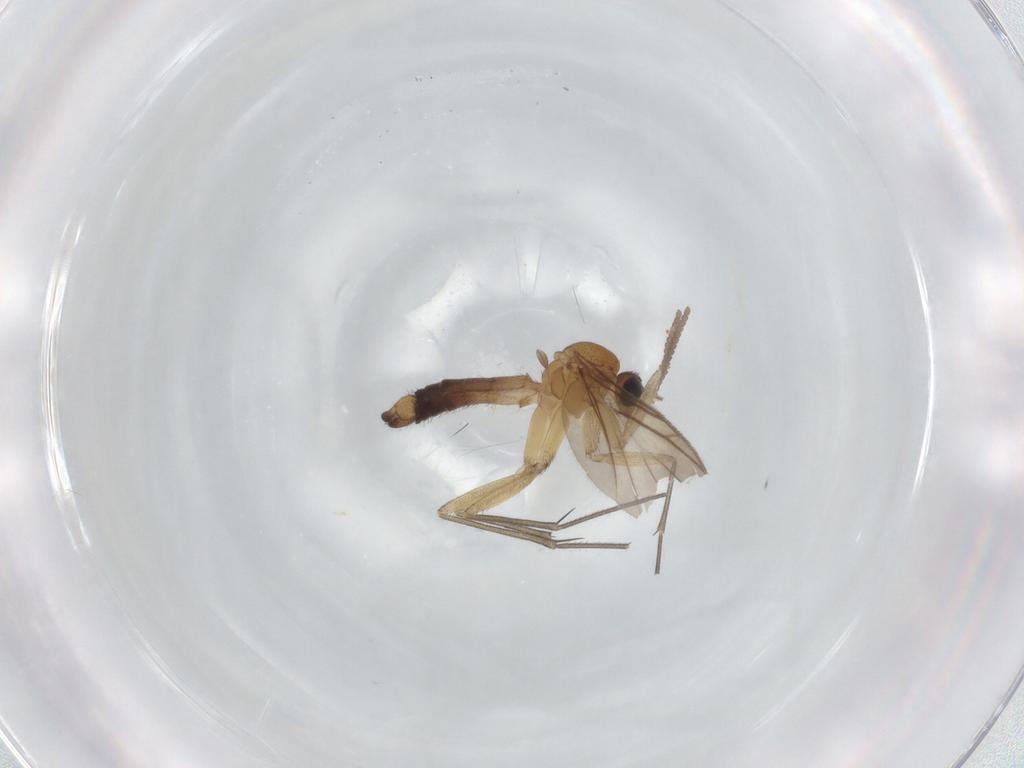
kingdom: Animalia
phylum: Arthropoda
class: Insecta
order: Diptera
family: Keroplatidae
